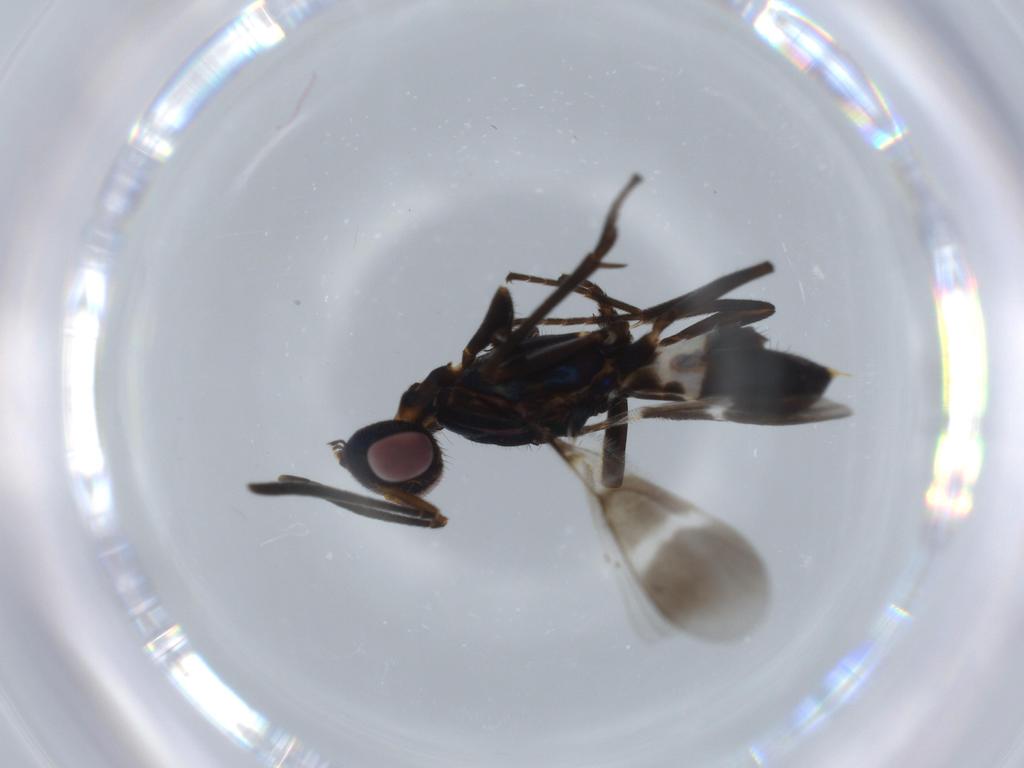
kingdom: Animalia
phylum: Arthropoda
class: Insecta
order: Hymenoptera
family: Eupelmidae
